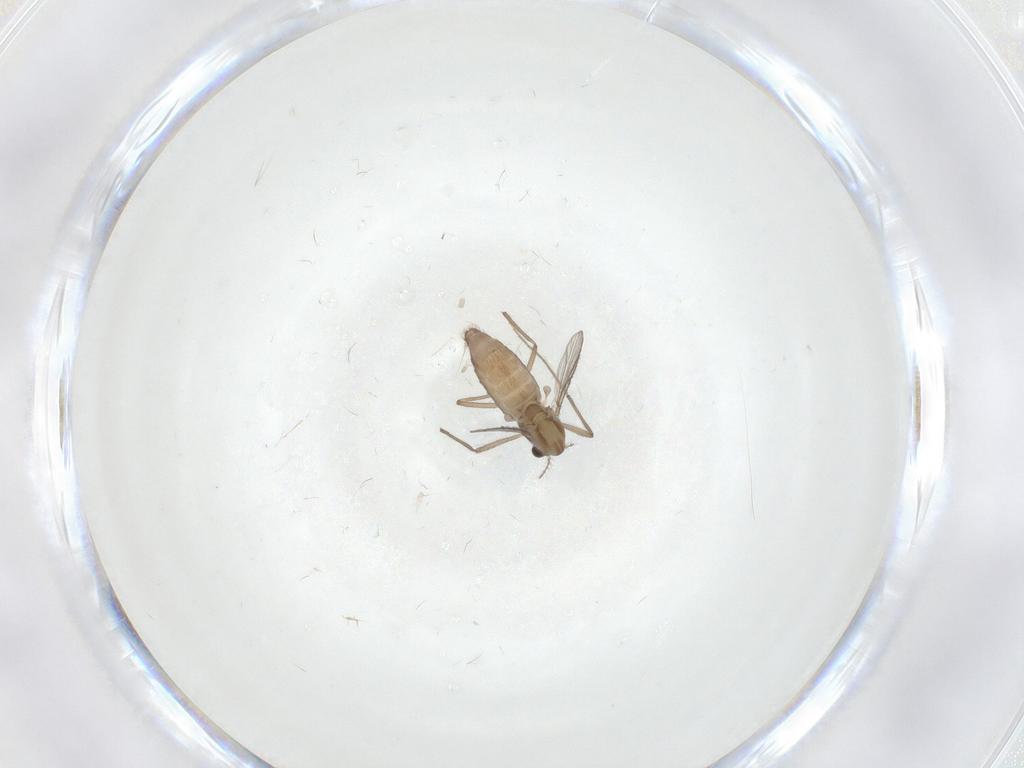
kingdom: Animalia
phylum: Arthropoda
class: Insecta
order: Diptera
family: Chironomidae
